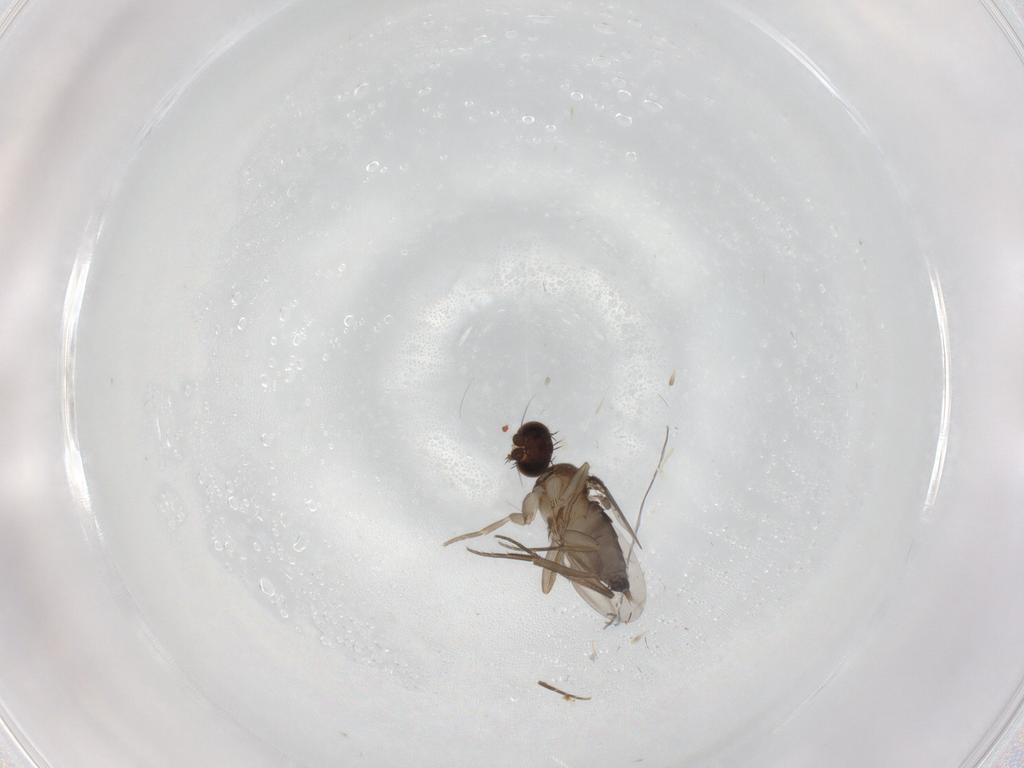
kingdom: Animalia
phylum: Arthropoda
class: Insecta
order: Diptera
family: Phoridae
